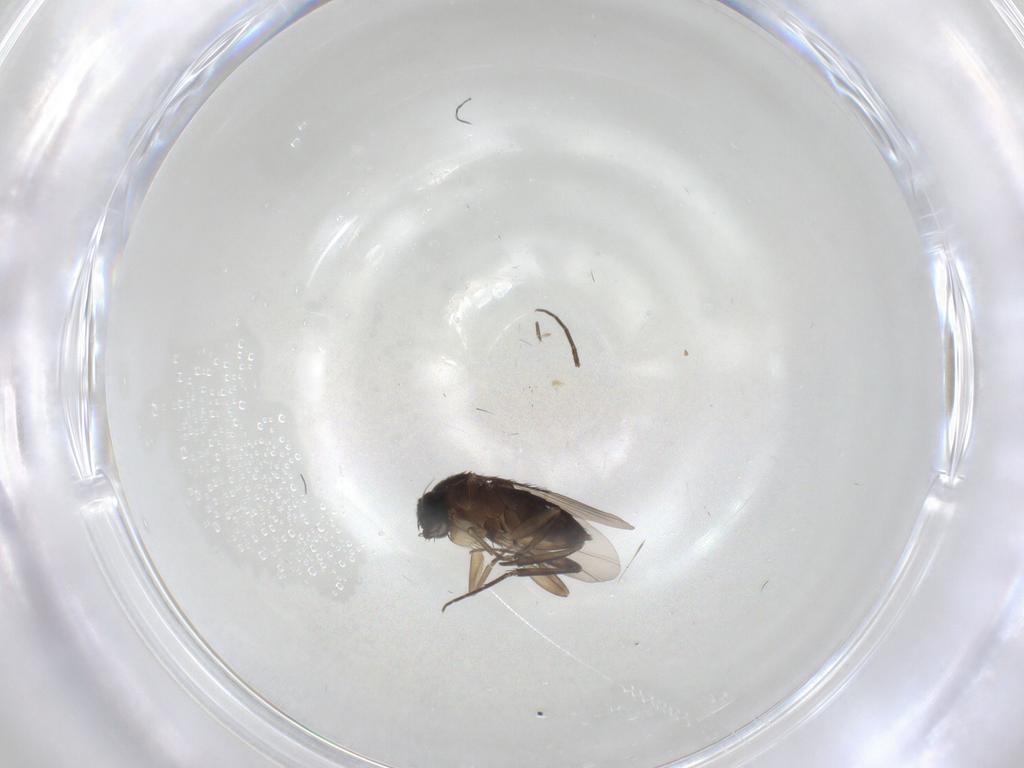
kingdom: Animalia
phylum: Arthropoda
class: Insecta
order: Diptera
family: Phoridae
